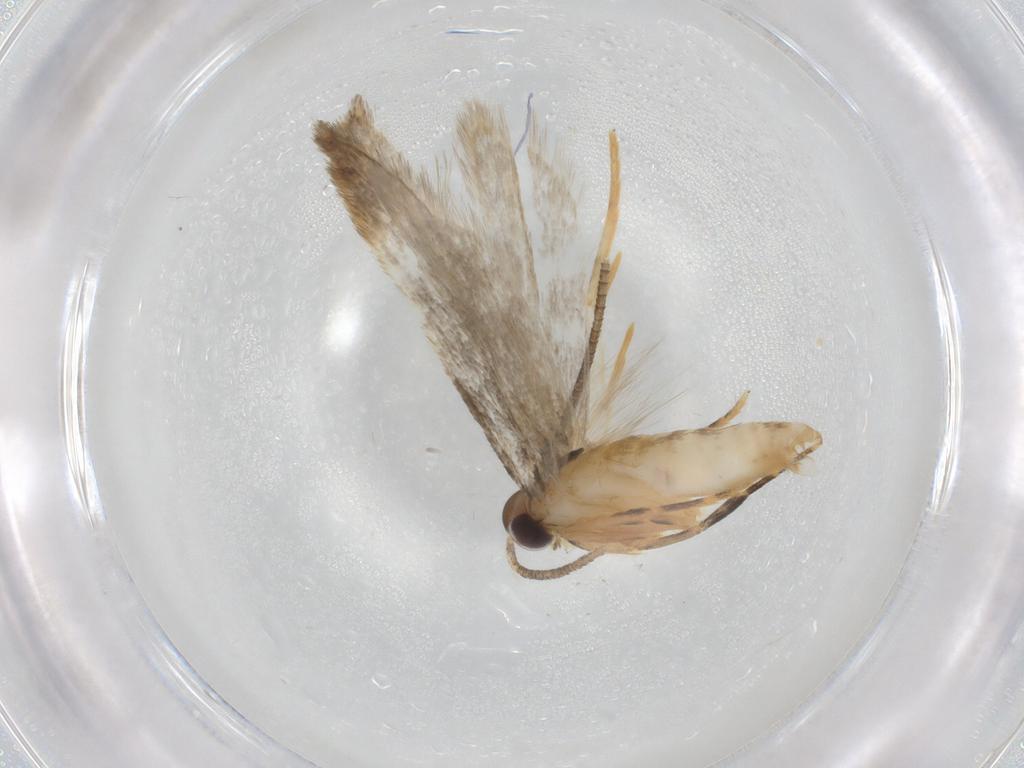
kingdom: Animalia
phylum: Arthropoda
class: Insecta
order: Lepidoptera
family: Autostichidae
